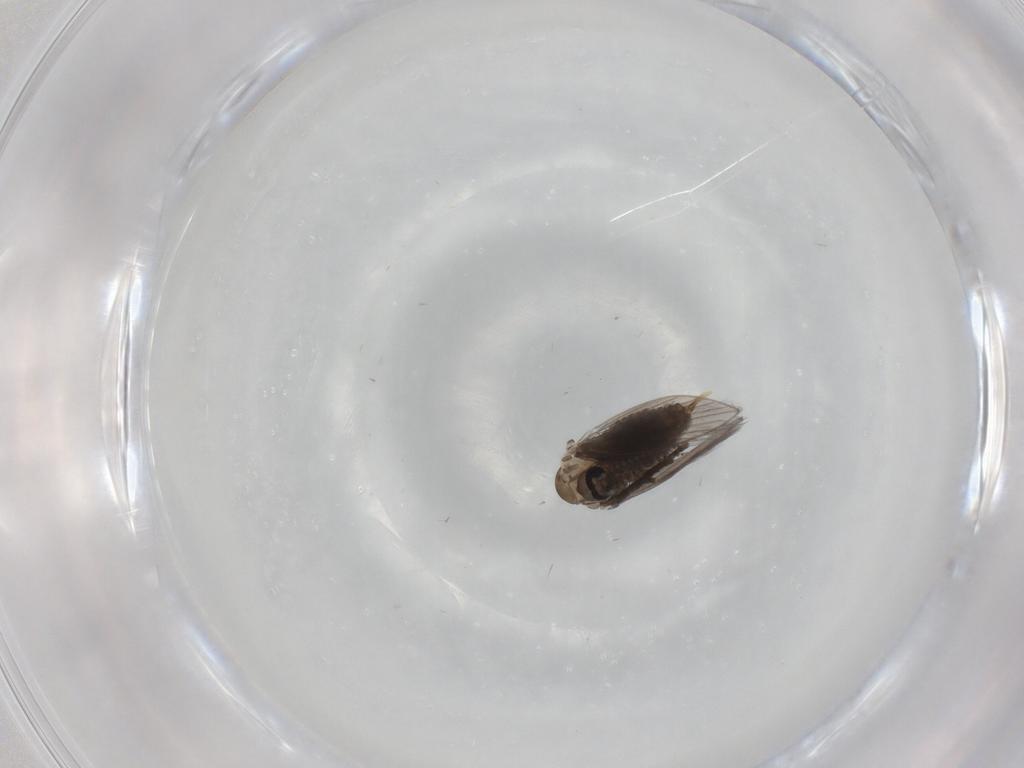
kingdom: Animalia
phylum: Arthropoda
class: Insecta
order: Diptera
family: Psychodidae
